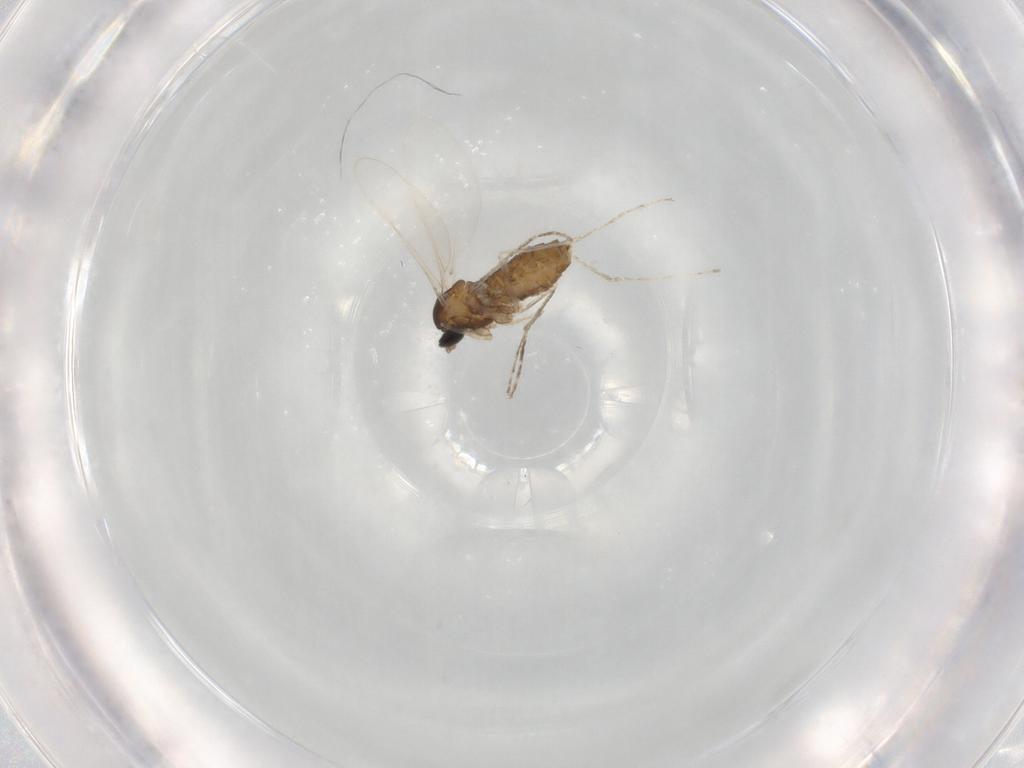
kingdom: Animalia
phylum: Arthropoda
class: Insecta
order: Diptera
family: Cecidomyiidae
